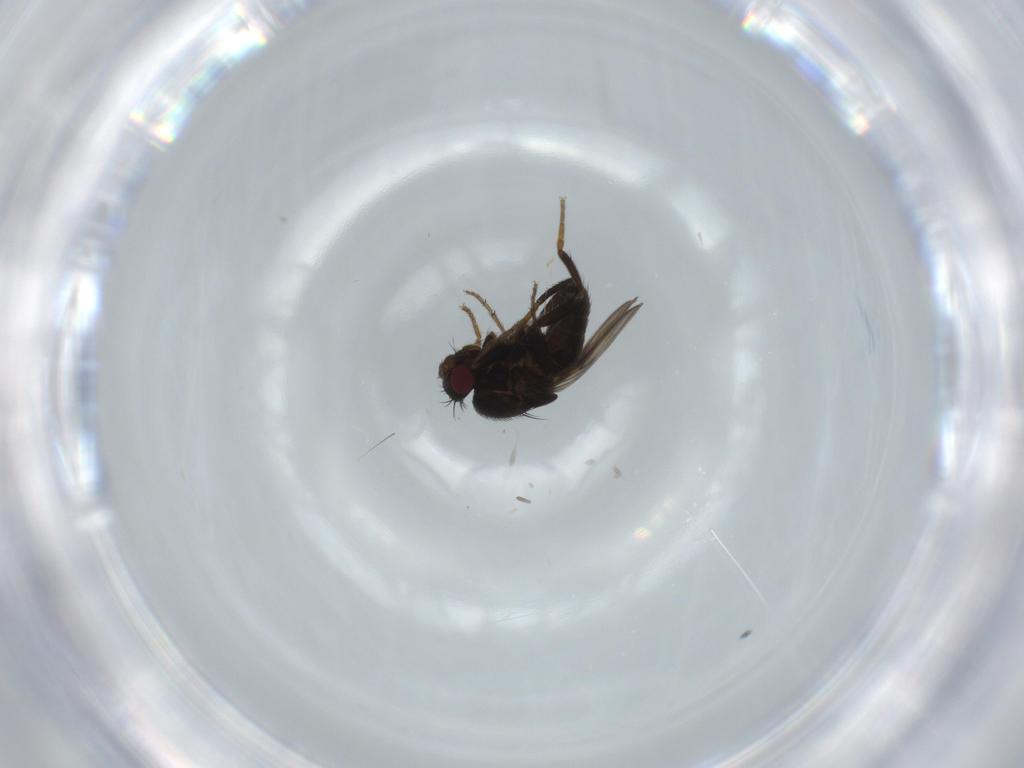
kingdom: Animalia
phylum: Arthropoda
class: Insecta
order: Diptera
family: Sphaeroceridae
